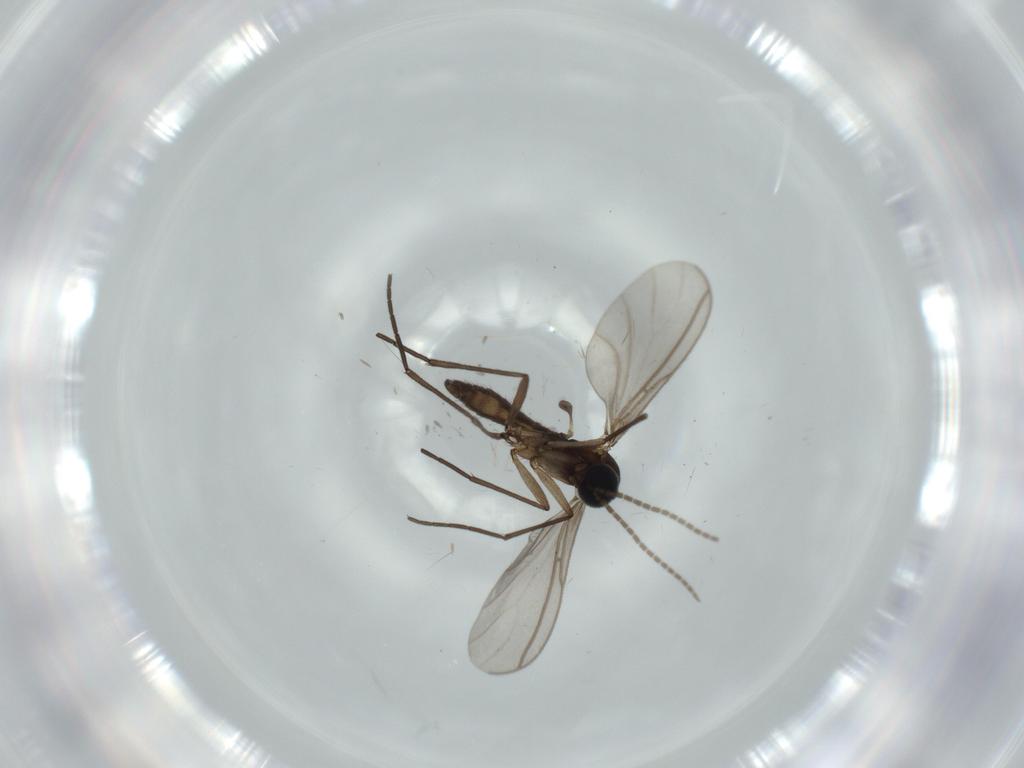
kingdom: Animalia
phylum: Arthropoda
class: Insecta
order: Diptera
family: Sciaridae
